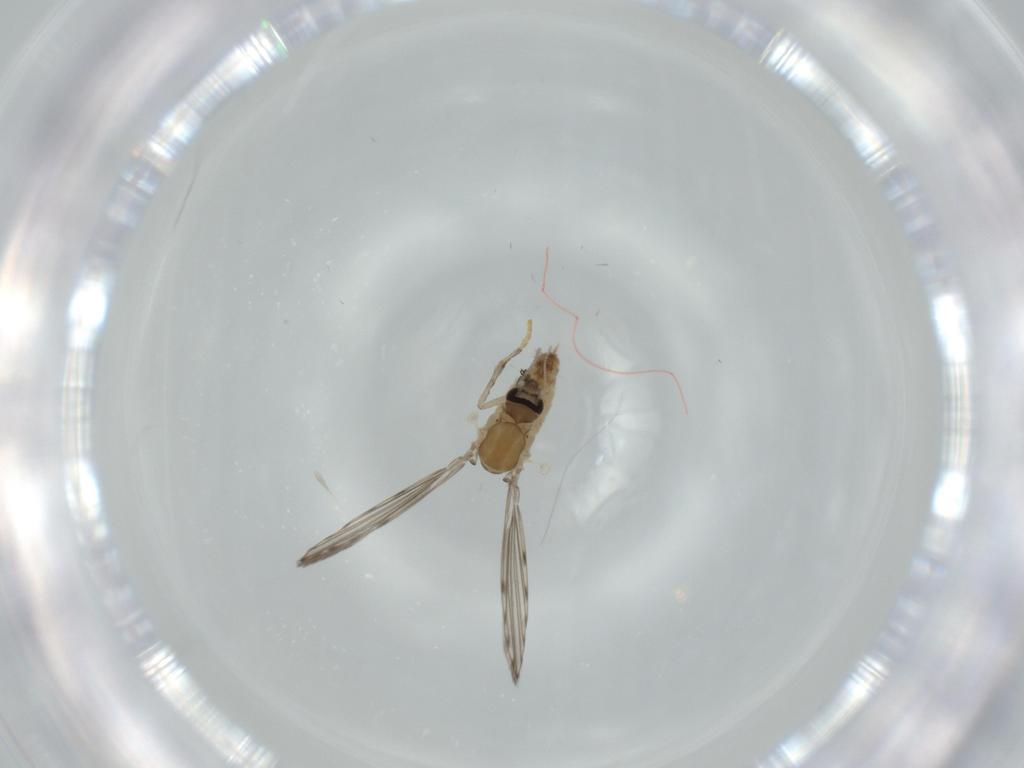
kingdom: Animalia
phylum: Arthropoda
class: Insecta
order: Diptera
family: Psychodidae
